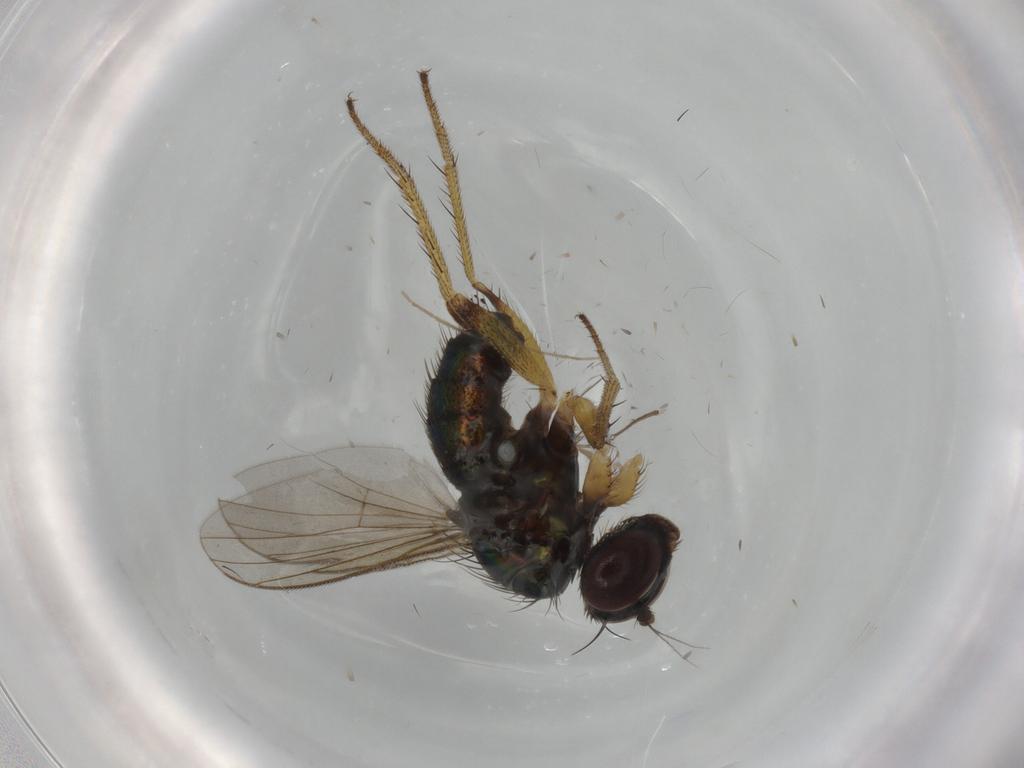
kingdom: Animalia
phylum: Arthropoda
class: Insecta
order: Diptera
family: Dolichopodidae
